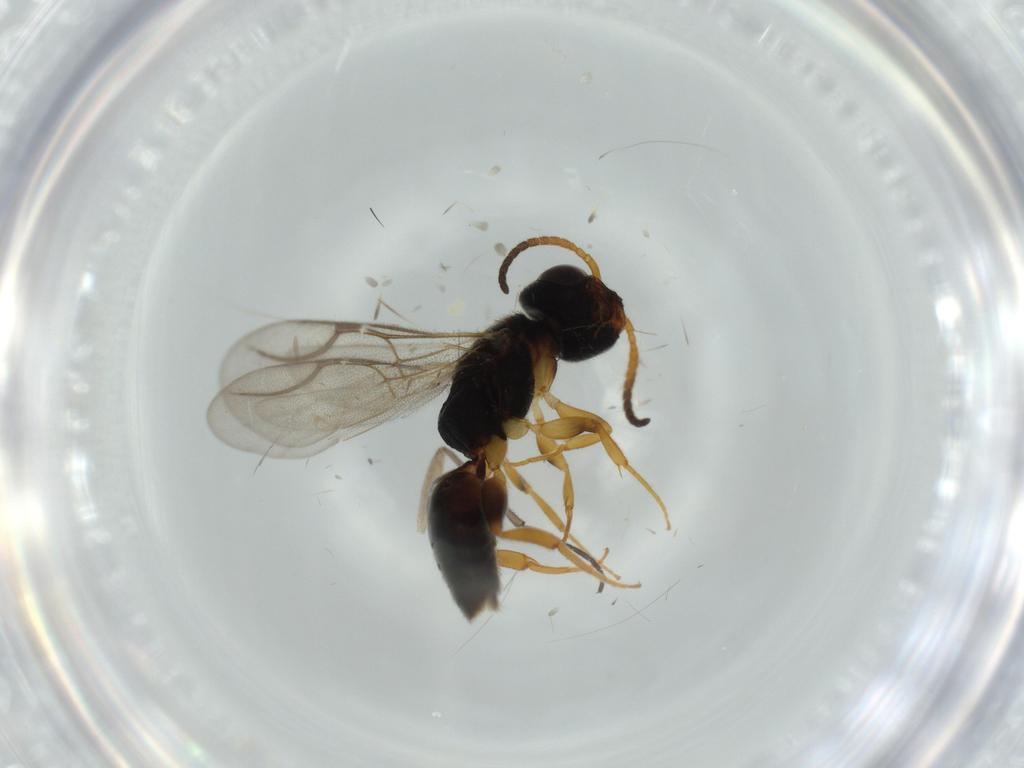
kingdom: Animalia
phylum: Arthropoda
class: Insecta
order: Hymenoptera
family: Bethylidae
